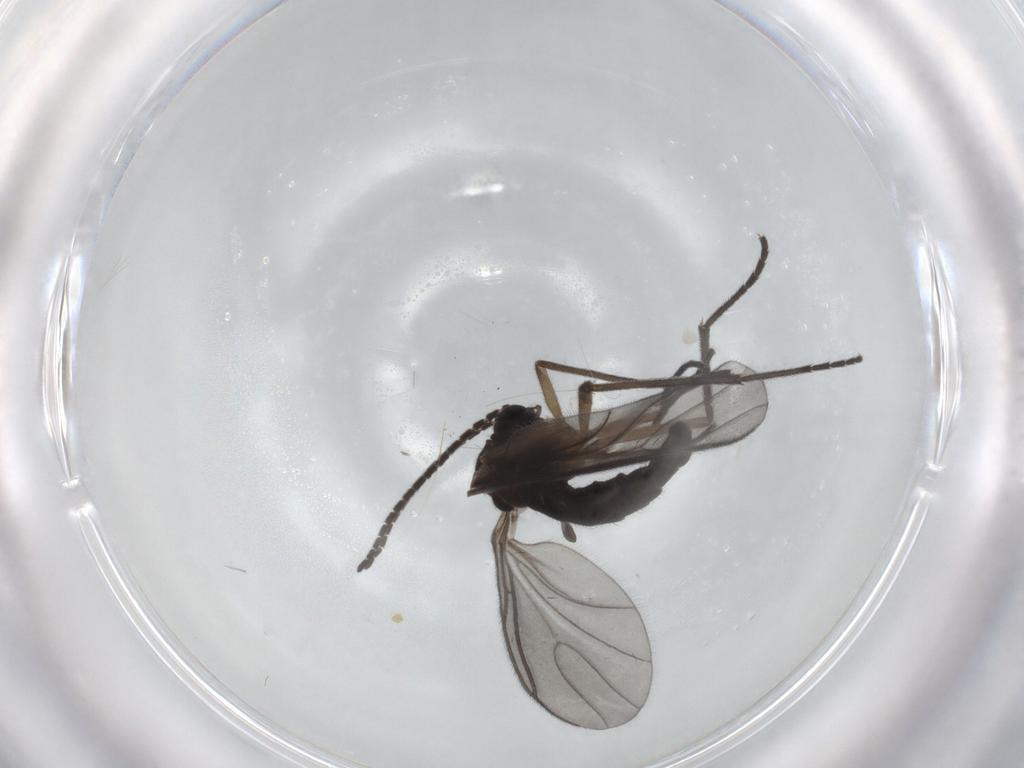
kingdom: Animalia
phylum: Arthropoda
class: Insecta
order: Diptera
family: Sciaridae
